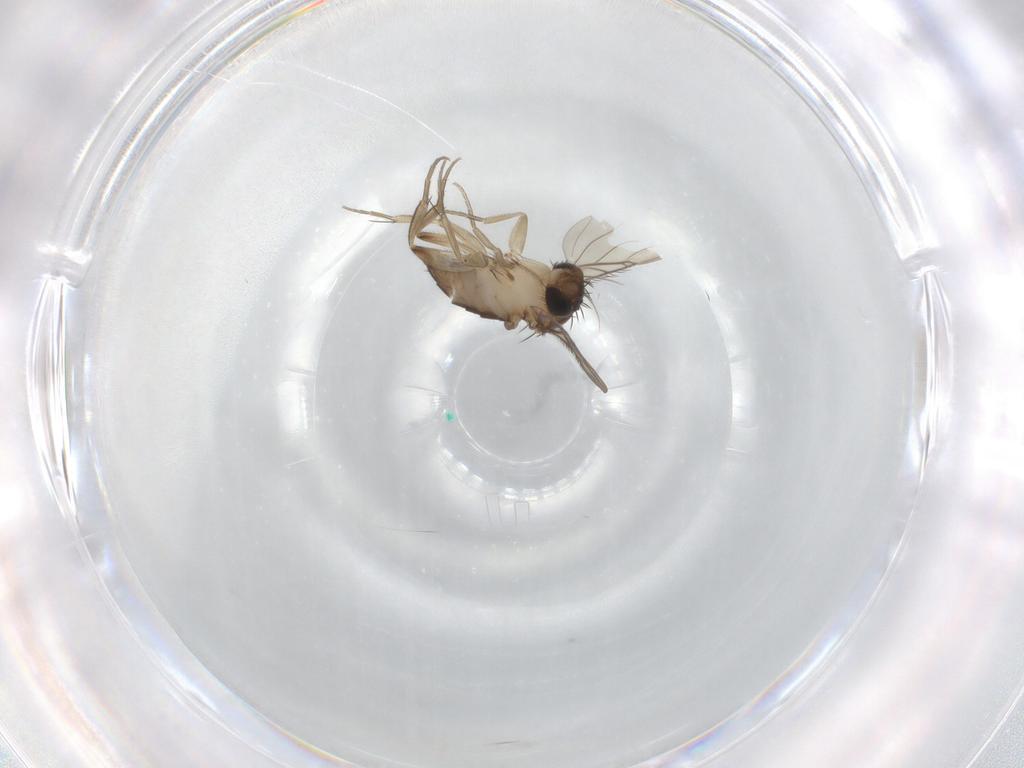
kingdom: Animalia
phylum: Arthropoda
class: Insecta
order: Diptera
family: Phoridae
